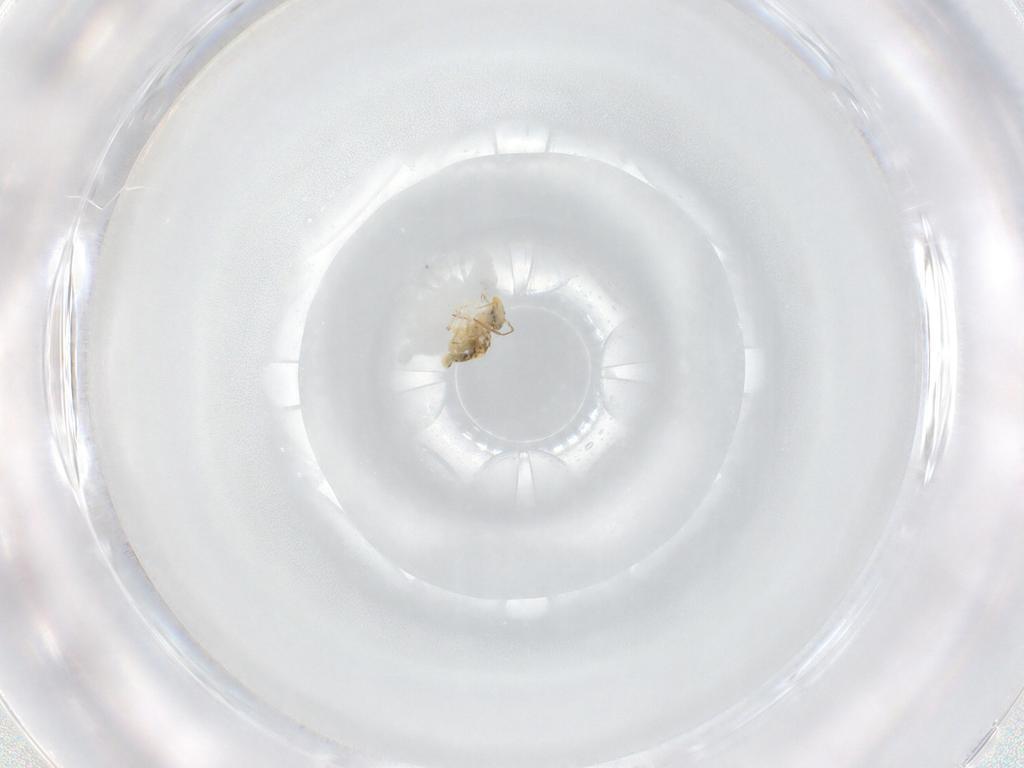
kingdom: Animalia
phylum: Arthropoda
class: Collembola
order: Symphypleona
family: Bourletiellidae
